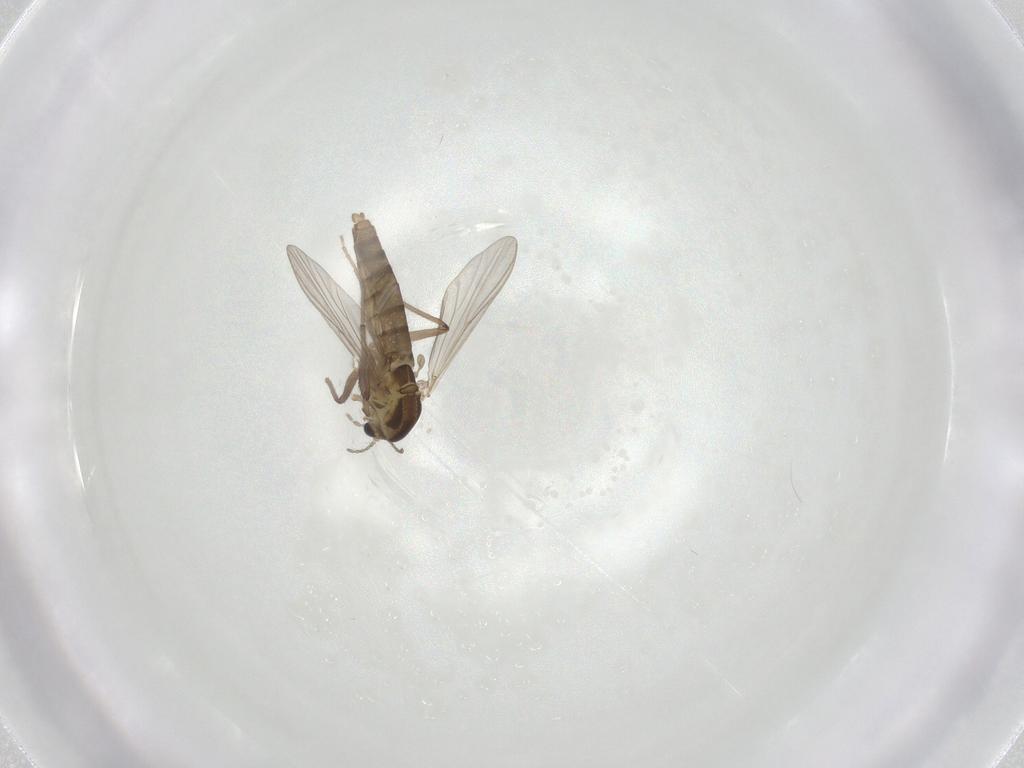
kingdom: Animalia
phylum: Arthropoda
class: Insecta
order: Diptera
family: Chironomidae
